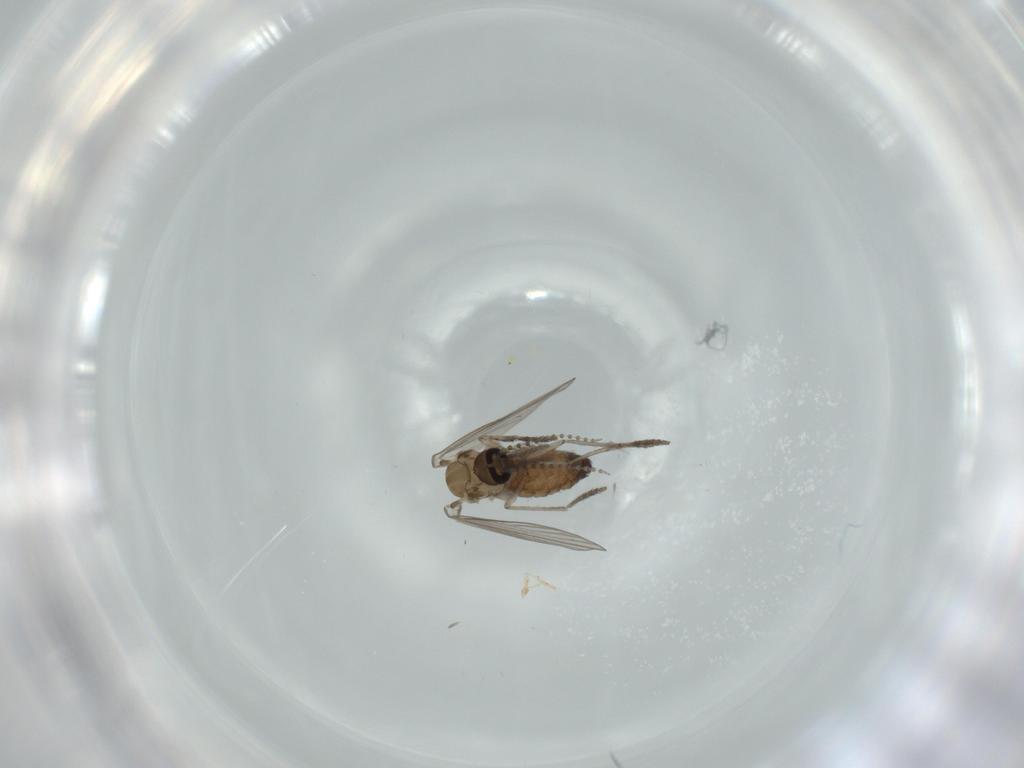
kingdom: Animalia
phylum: Arthropoda
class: Insecta
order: Diptera
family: Psychodidae
